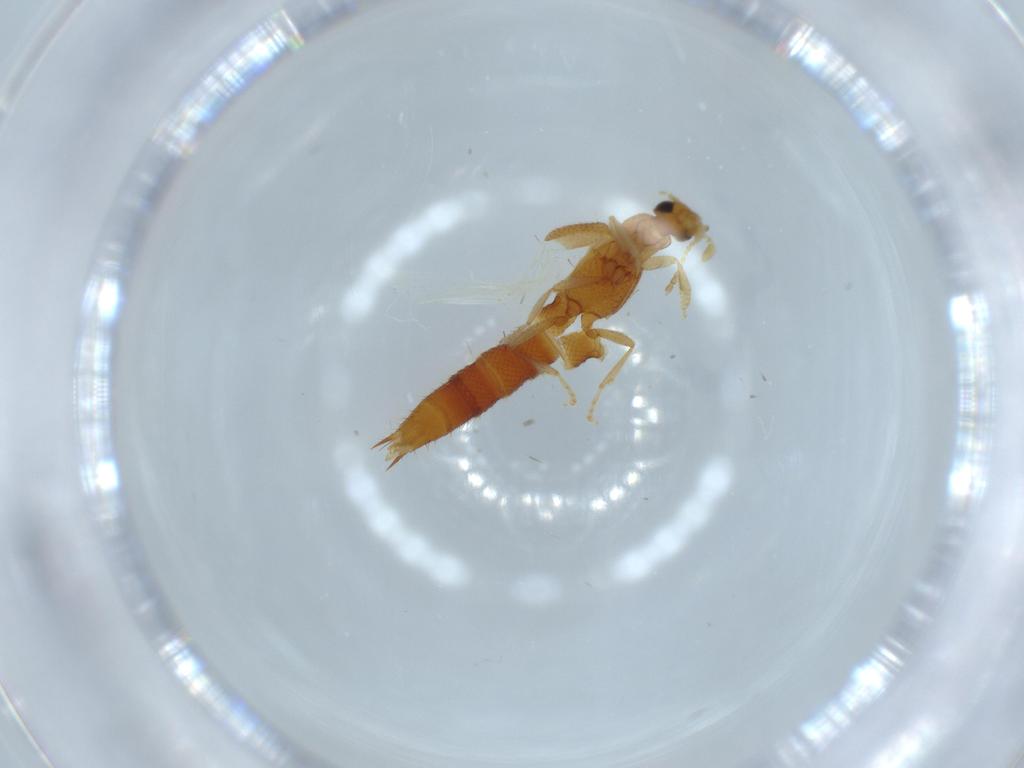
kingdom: Animalia
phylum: Arthropoda
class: Insecta
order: Coleoptera
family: Staphylinidae
